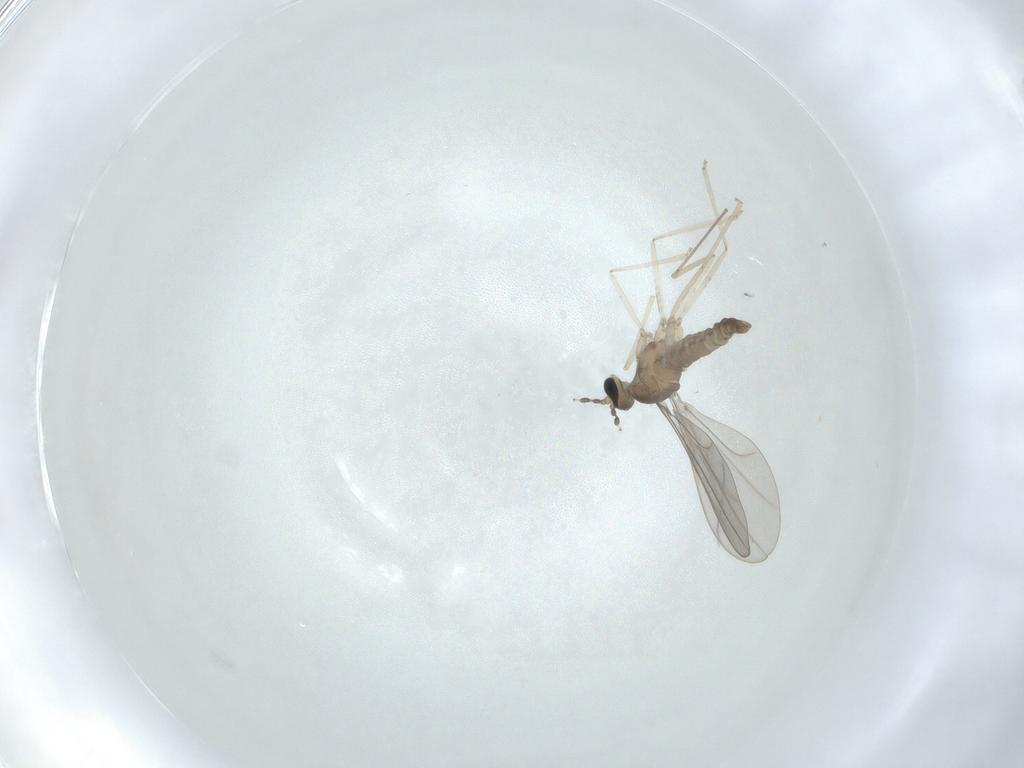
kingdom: Animalia
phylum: Arthropoda
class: Insecta
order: Diptera
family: Cecidomyiidae
